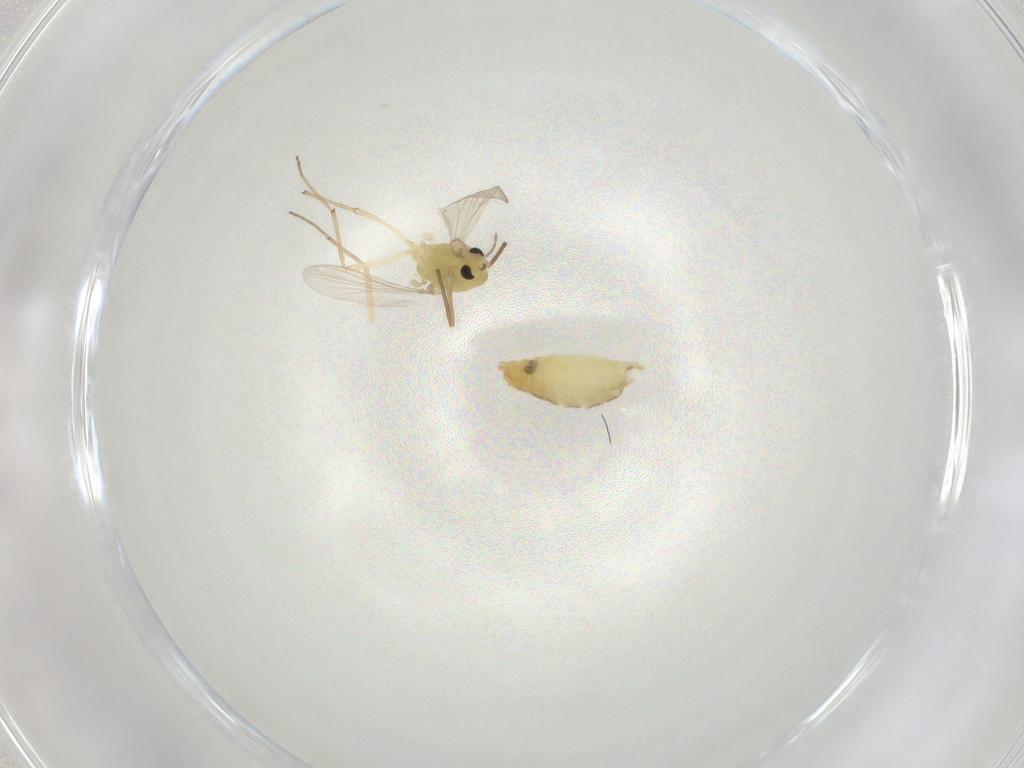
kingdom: Animalia
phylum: Arthropoda
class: Insecta
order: Diptera
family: Chironomidae
